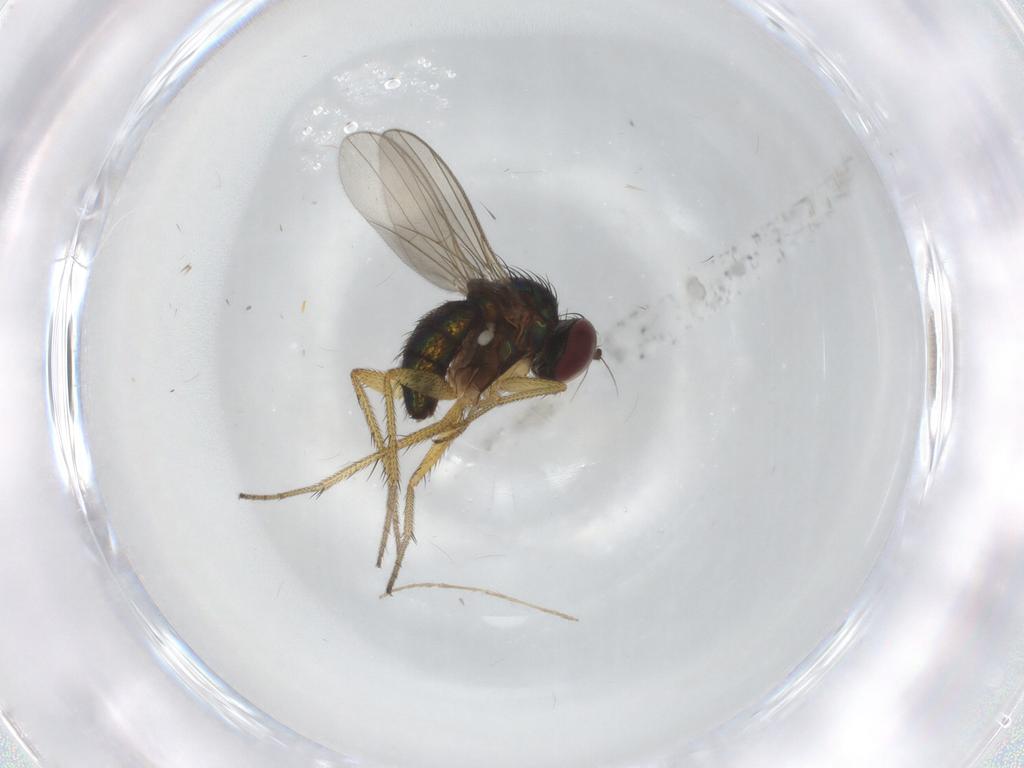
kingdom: Animalia
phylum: Arthropoda
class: Insecta
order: Diptera
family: Dolichopodidae
